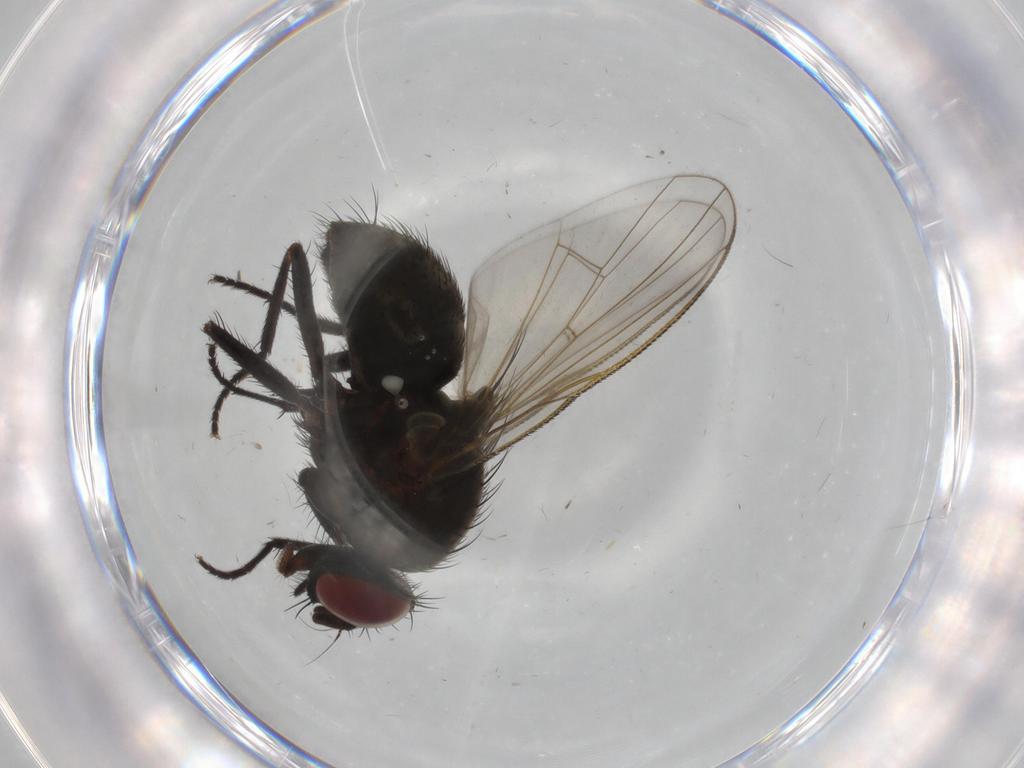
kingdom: Animalia
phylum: Arthropoda
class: Insecta
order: Diptera
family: Muscidae
